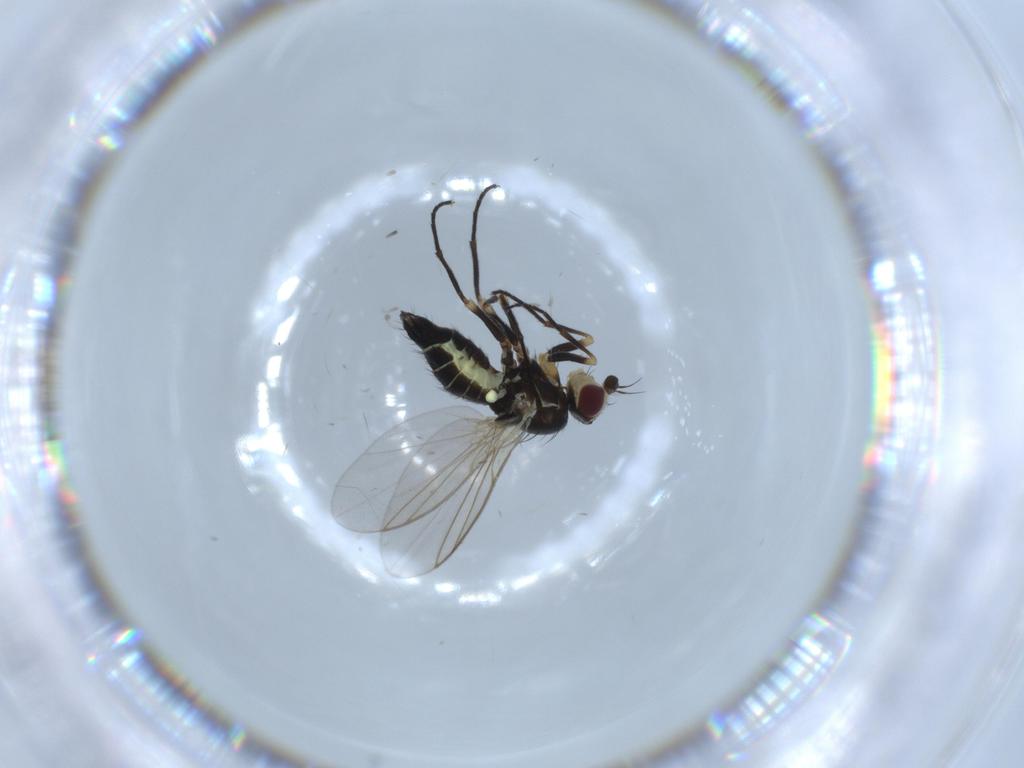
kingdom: Animalia
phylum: Arthropoda
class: Insecta
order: Diptera
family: Agromyzidae
